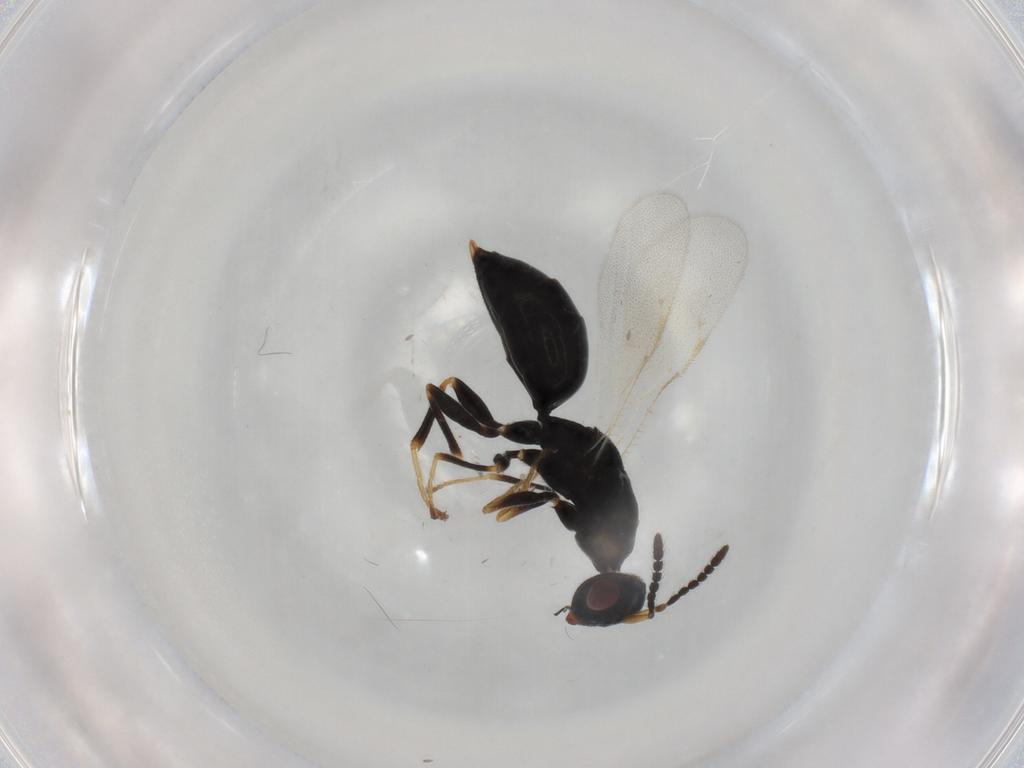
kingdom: Animalia
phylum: Arthropoda
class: Insecta
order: Hymenoptera
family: Eurytomidae
